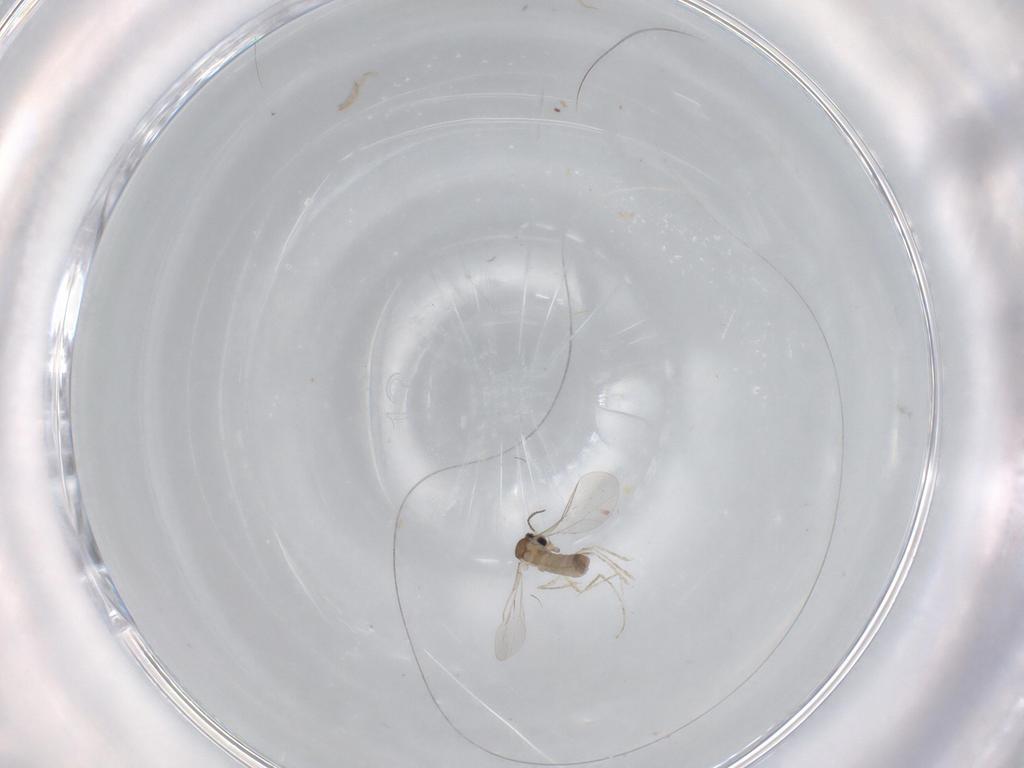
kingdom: Animalia
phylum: Arthropoda
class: Insecta
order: Diptera
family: Cecidomyiidae
